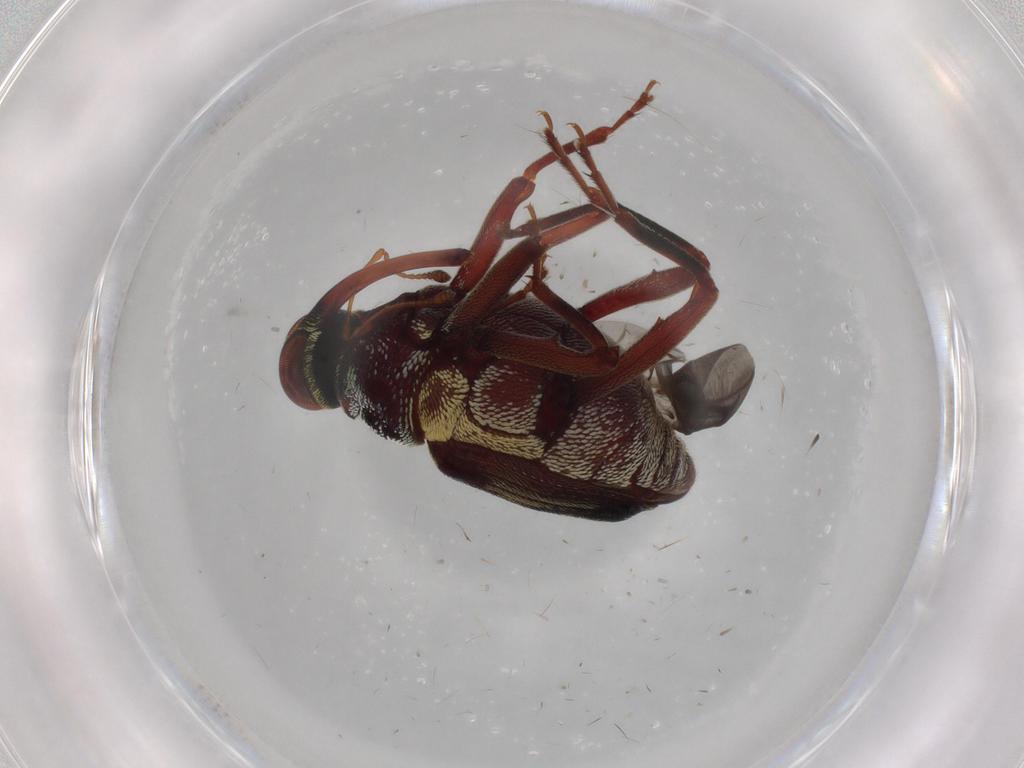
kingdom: Animalia
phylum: Arthropoda
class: Insecta
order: Coleoptera
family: Curculionidae
